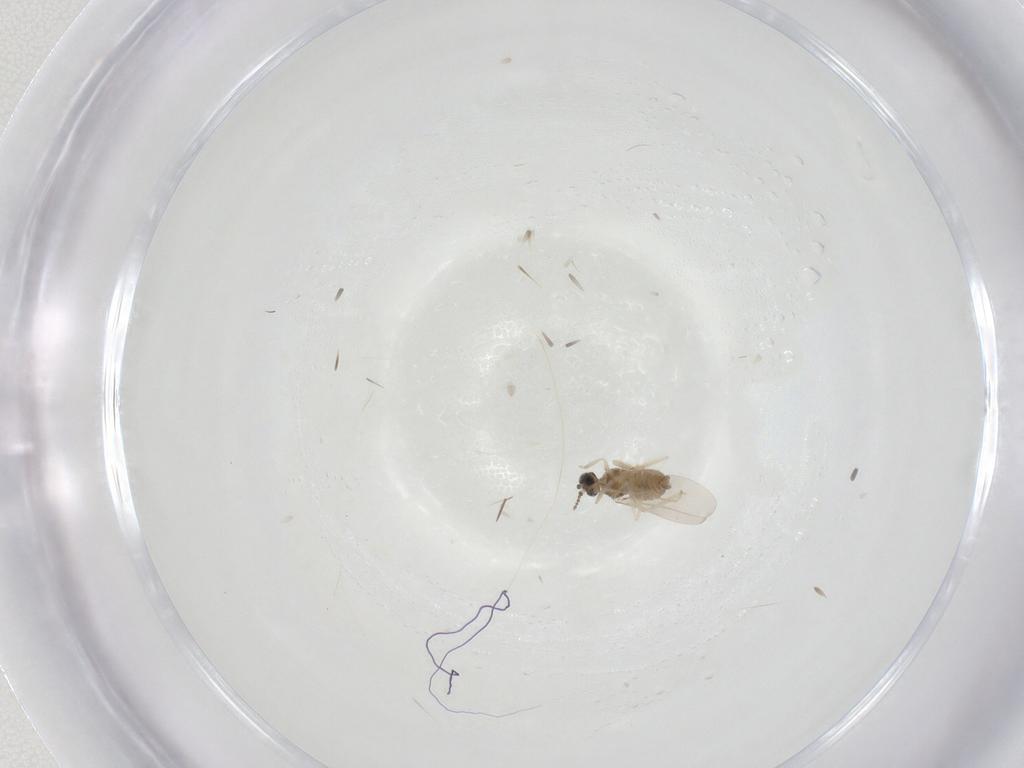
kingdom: Animalia
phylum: Arthropoda
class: Insecta
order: Diptera
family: Cecidomyiidae
